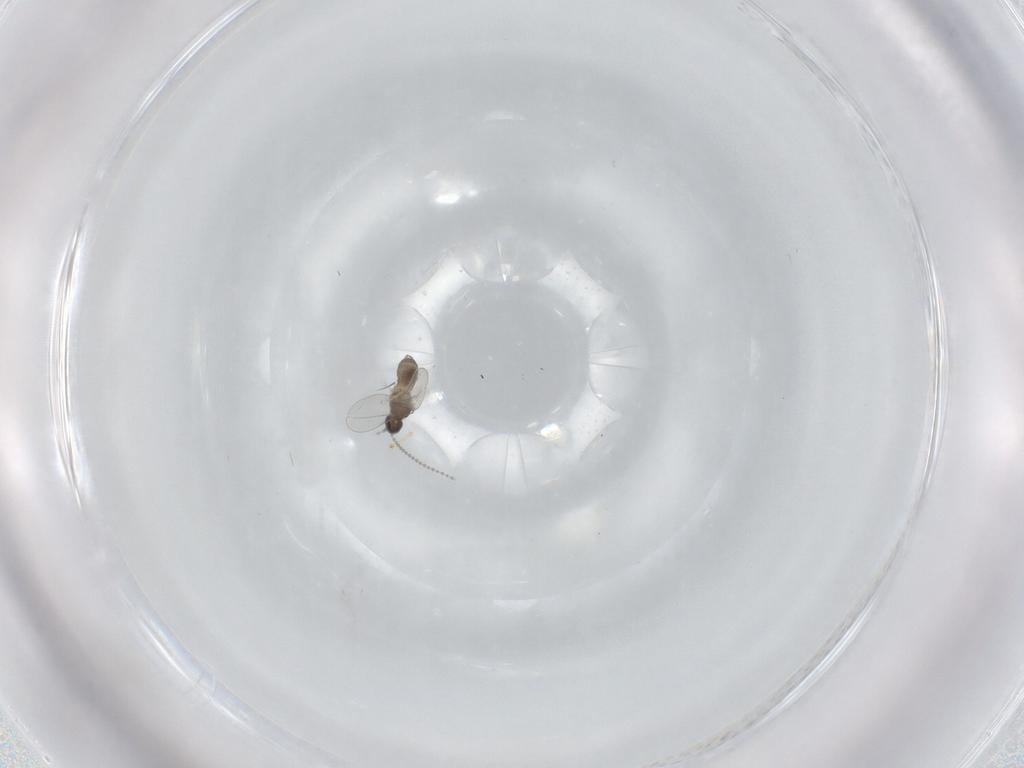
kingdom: Animalia
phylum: Arthropoda
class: Insecta
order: Diptera
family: Cecidomyiidae
